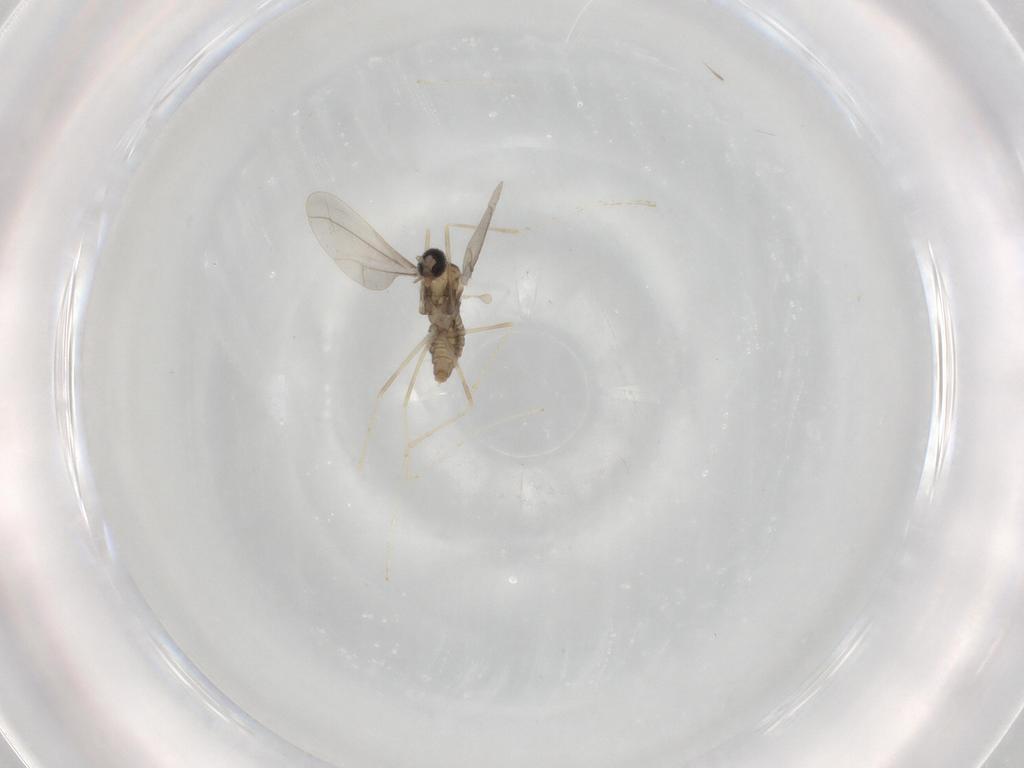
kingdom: Animalia
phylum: Arthropoda
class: Insecta
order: Diptera
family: Cecidomyiidae
